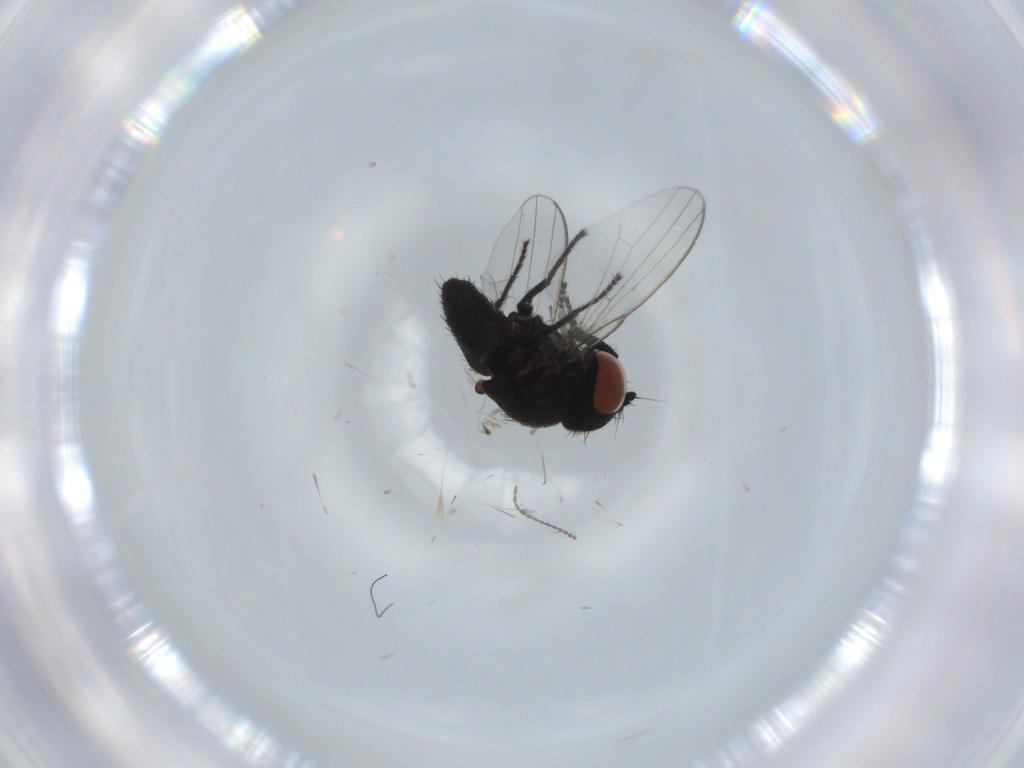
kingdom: Animalia
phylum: Arthropoda
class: Insecta
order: Diptera
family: Ceratopogonidae
